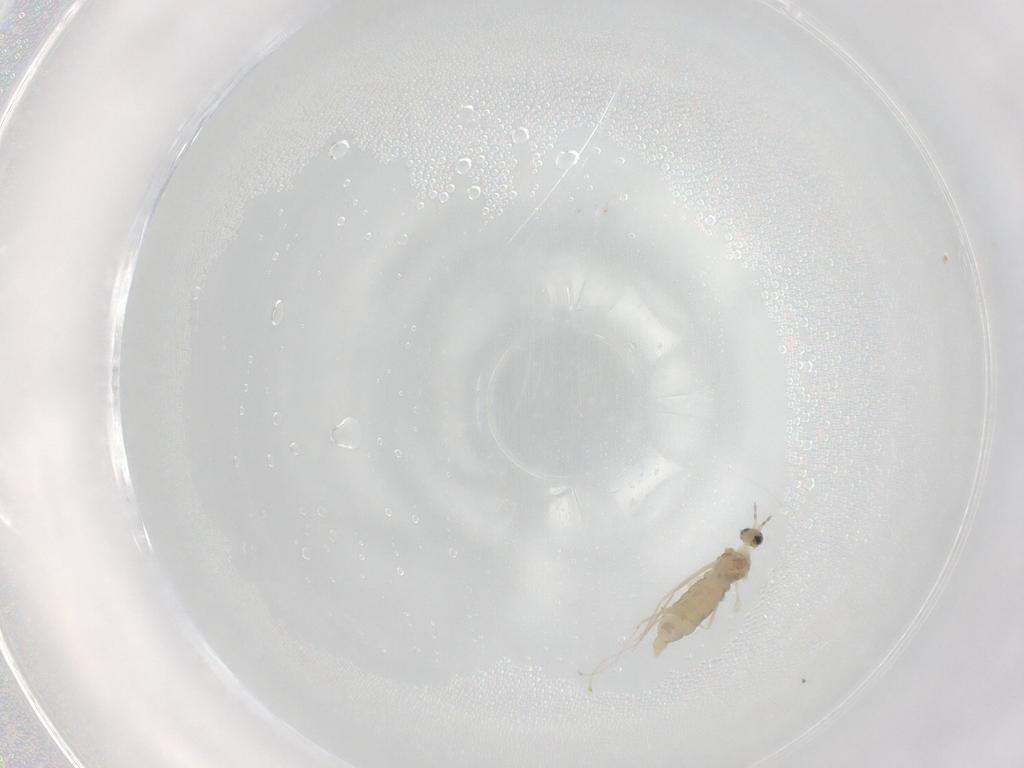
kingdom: Animalia
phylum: Arthropoda
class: Insecta
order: Diptera
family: Cecidomyiidae
